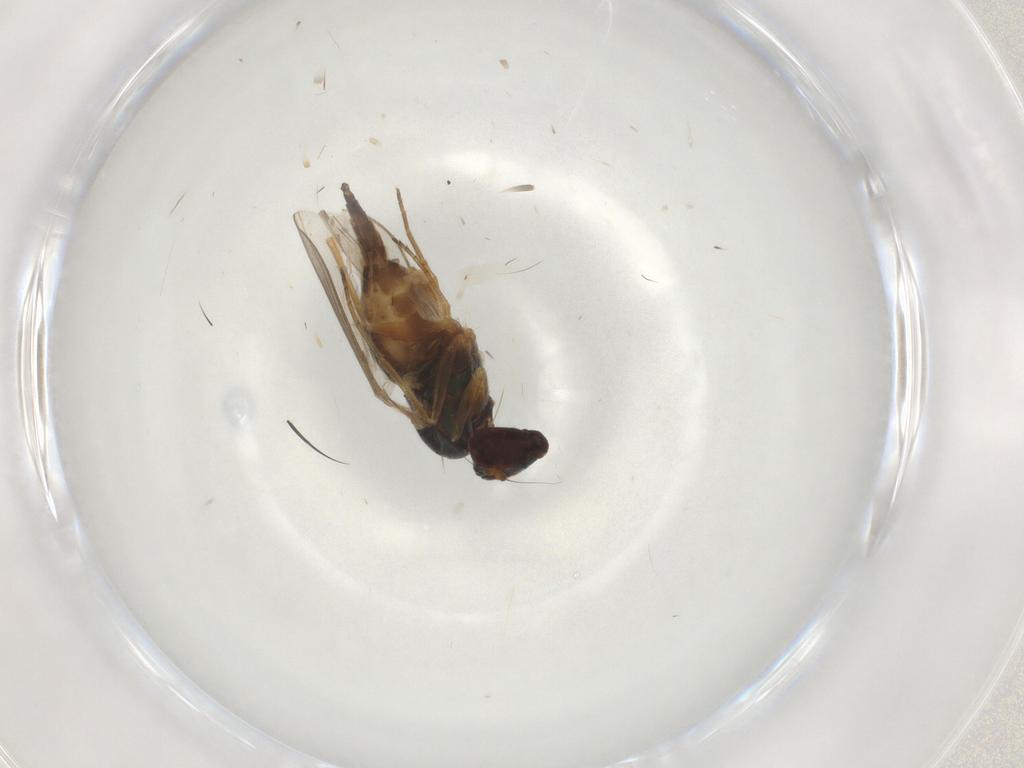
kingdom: Animalia
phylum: Arthropoda
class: Insecta
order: Diptera
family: Dolichopodidae
